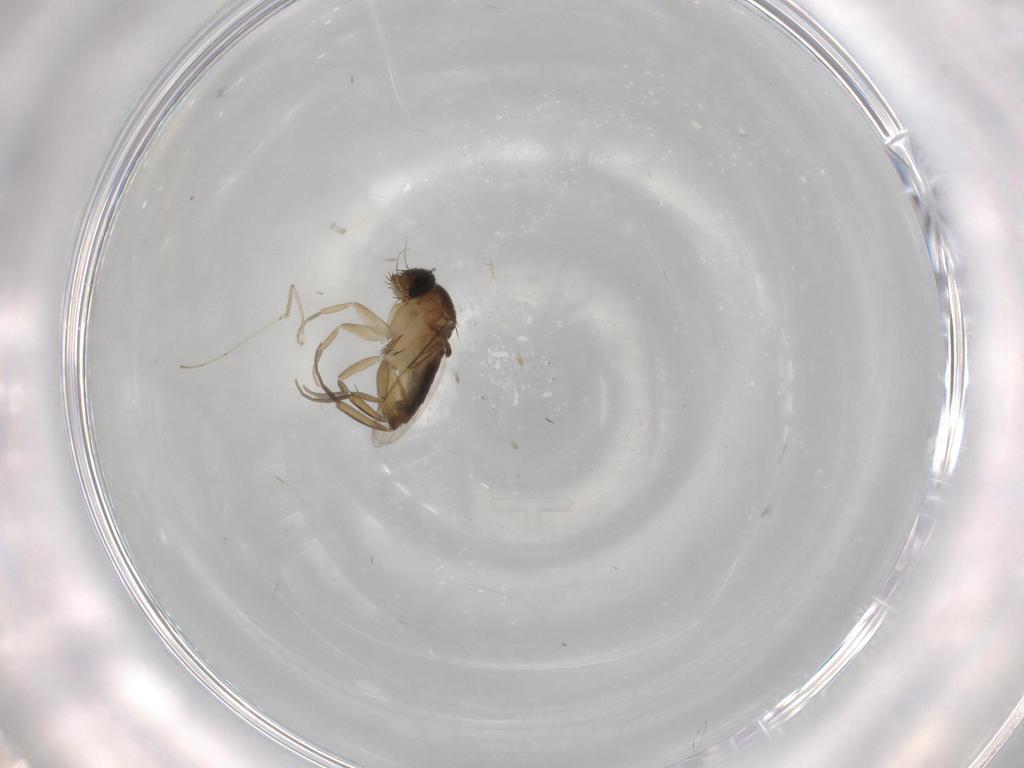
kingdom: Animalia
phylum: Arthropoda
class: Insecta
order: Diptera
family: Phoridae
